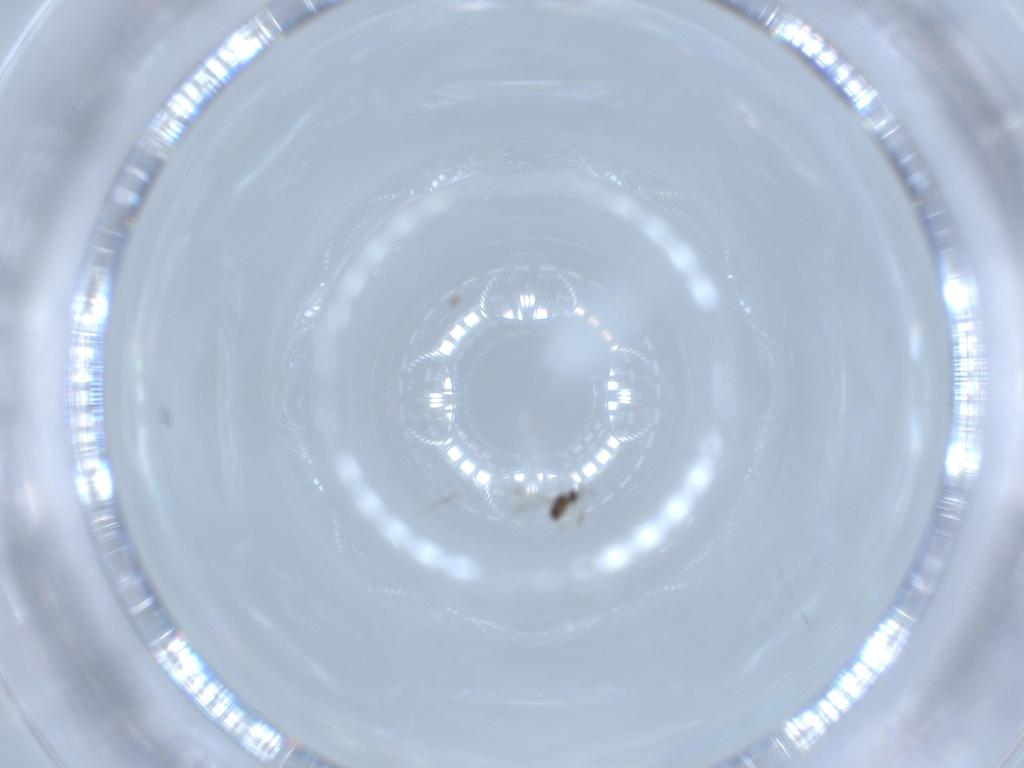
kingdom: Animalia
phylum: Arthropoda
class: Insecta
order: Hymenoptera
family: Mymaridae
